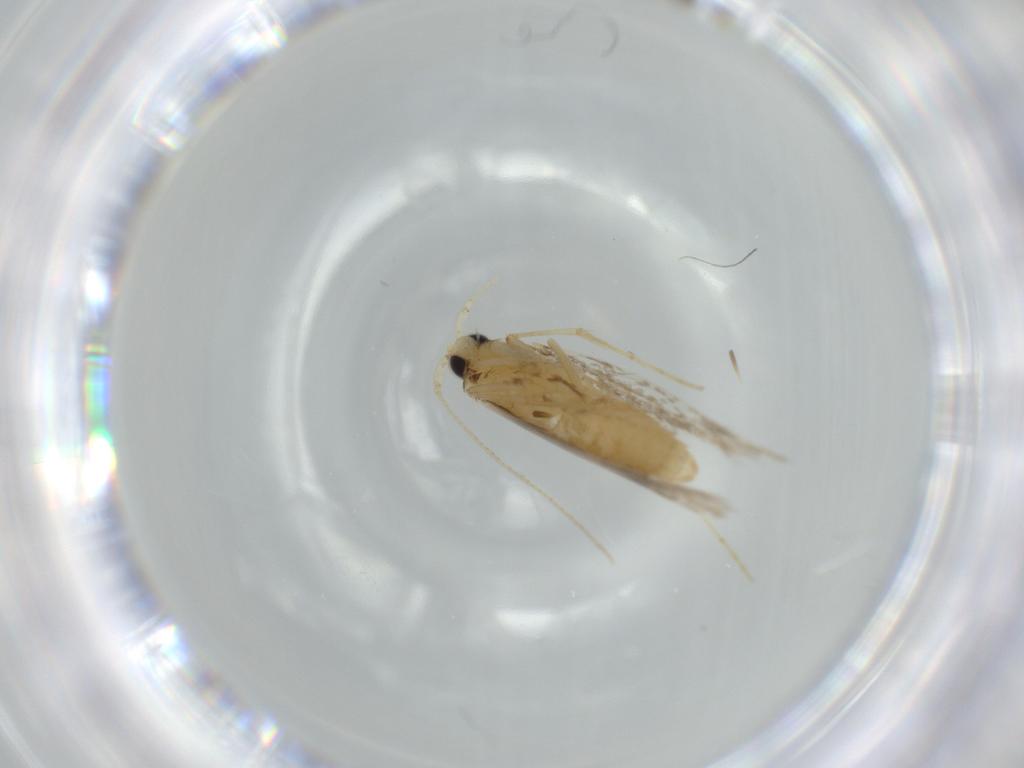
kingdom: Animalia
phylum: Arthropoda
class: Insecta
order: Lepidoptera
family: Tineidae
